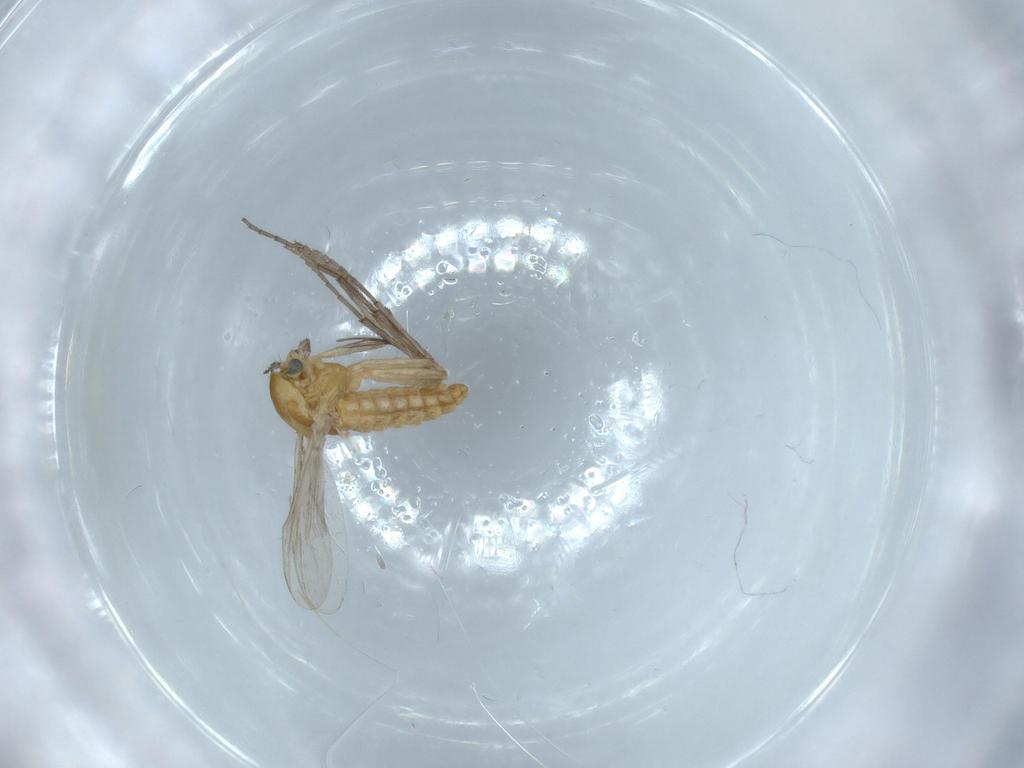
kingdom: Animalia
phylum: Arthropoda
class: Insecta
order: Diptera
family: Chironomidae
